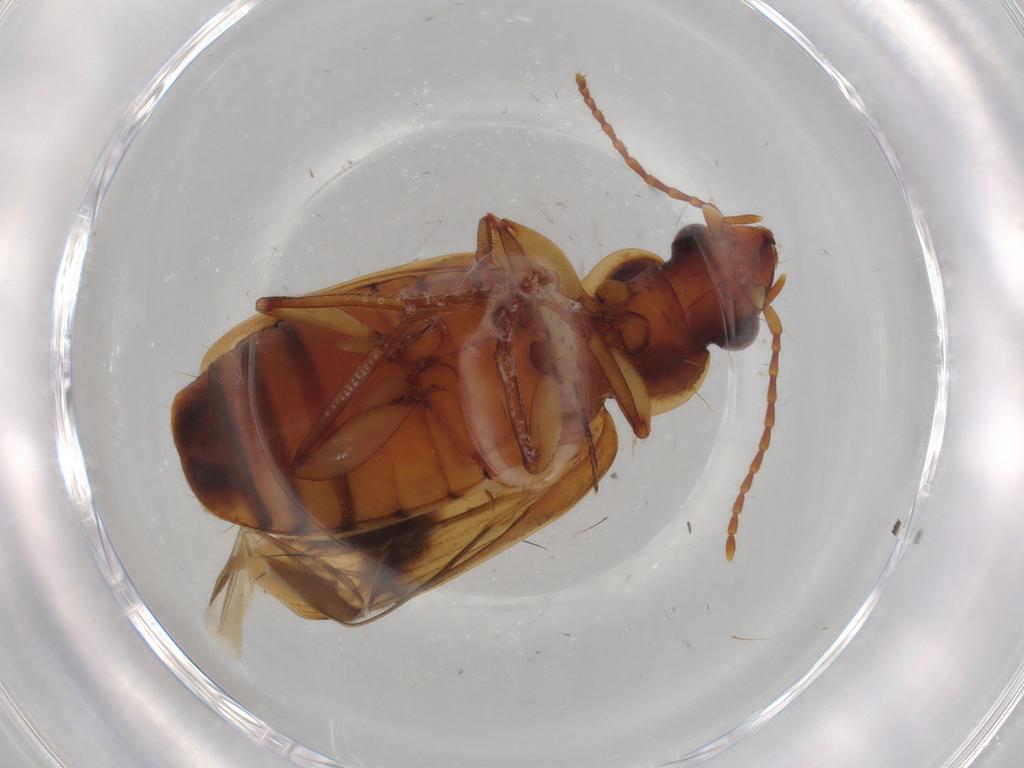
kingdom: Animalia
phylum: Arthropoda
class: Insecta
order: Coleoptera
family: Carabidae
